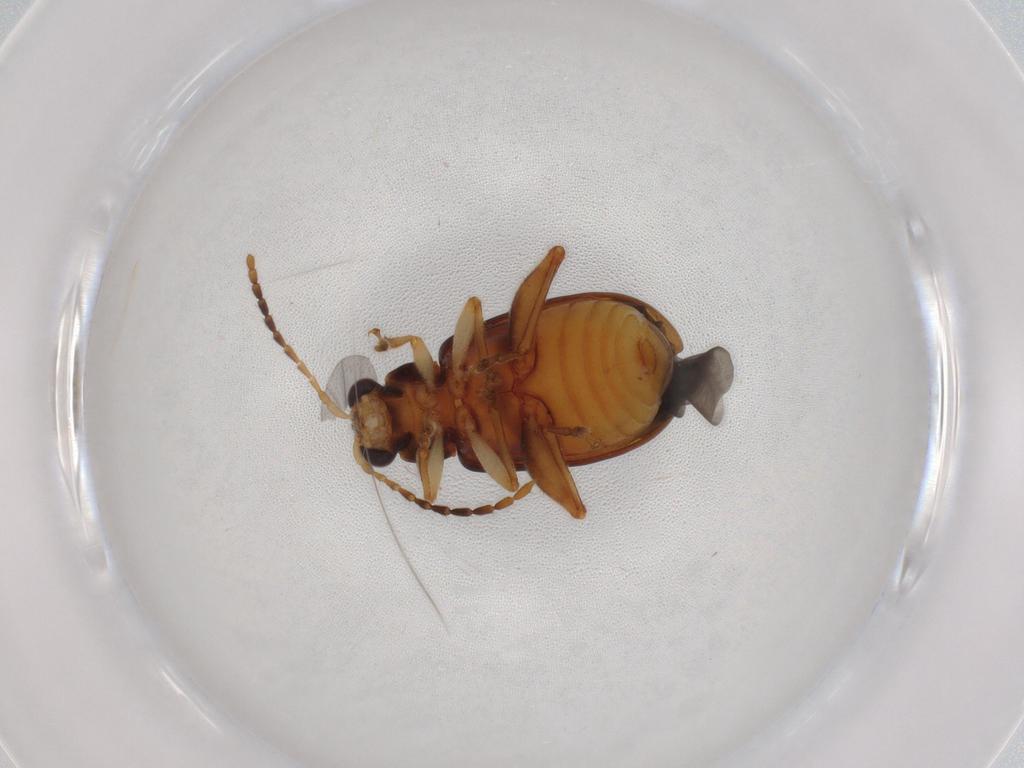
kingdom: Animalia
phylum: Arthropoda
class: Insecta
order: Coleoptera
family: Chrysomelidae
